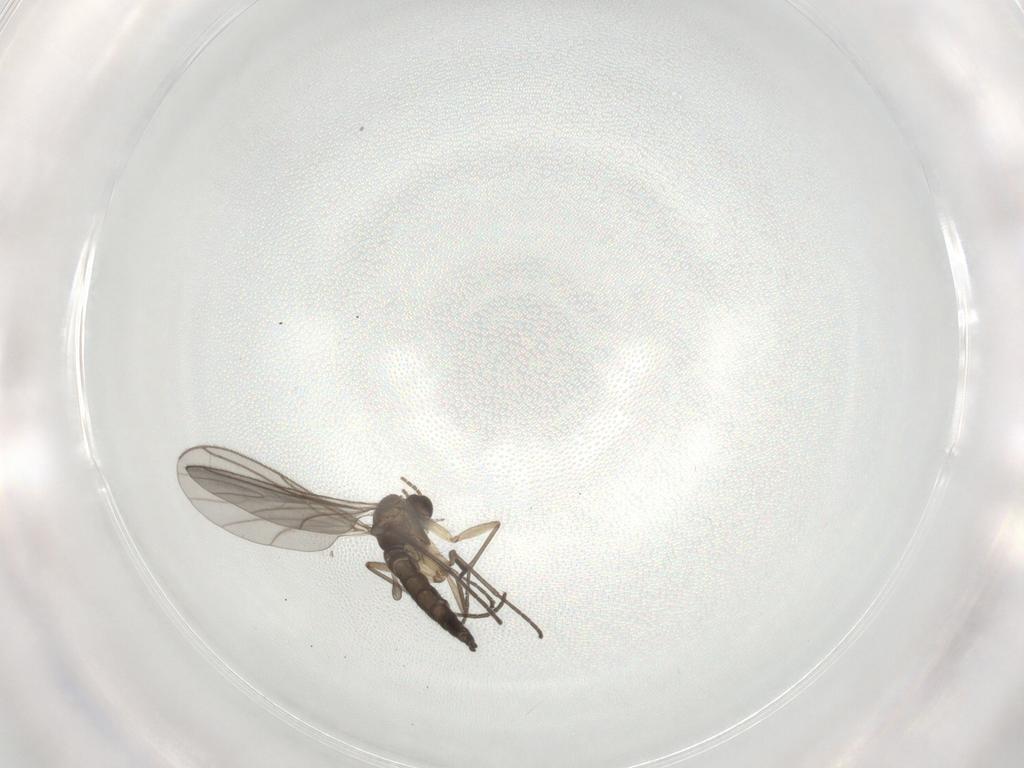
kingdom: Animalia
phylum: Arthropoda
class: Insecta
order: Diptera
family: Sciaridae
